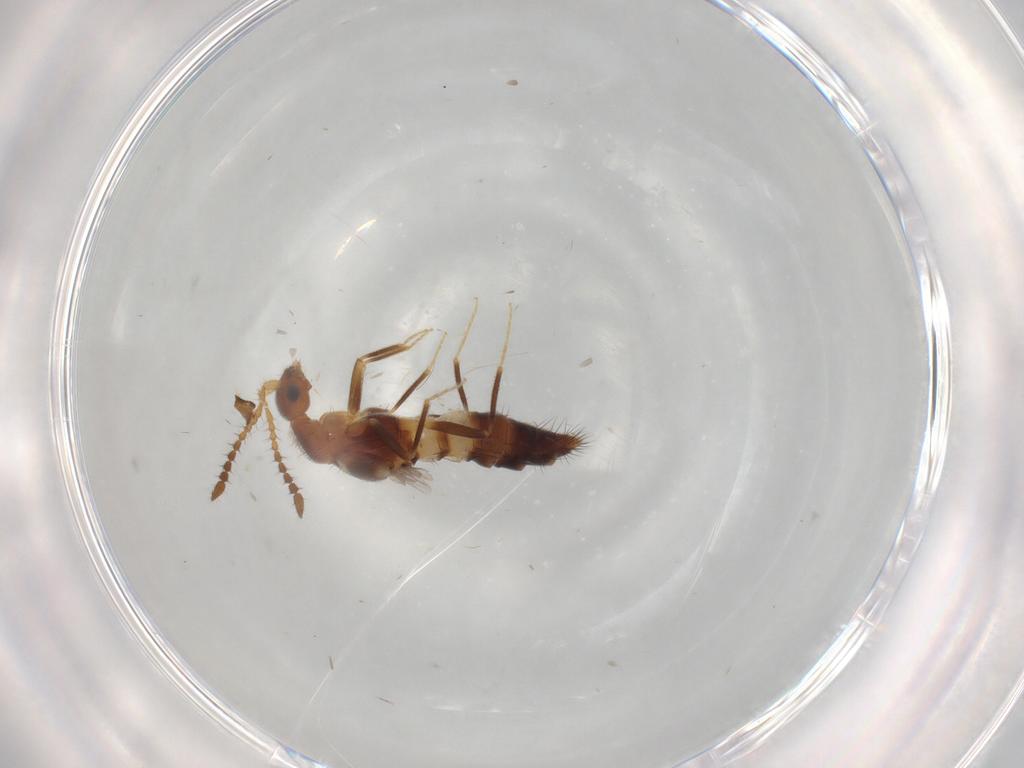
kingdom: Animalia
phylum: Arthropoda
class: Insecta
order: Coleoptera
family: Staphylinidae
